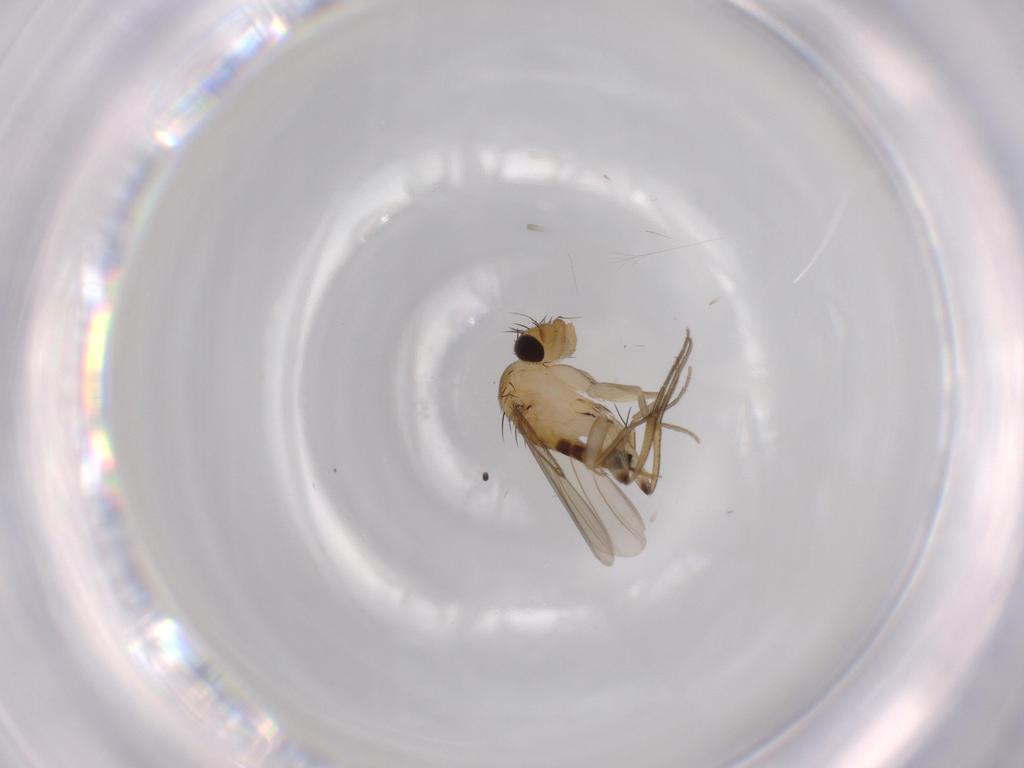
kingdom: Animalia
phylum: Arthropoda
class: Insecta
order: Diptera
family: Phoridae
